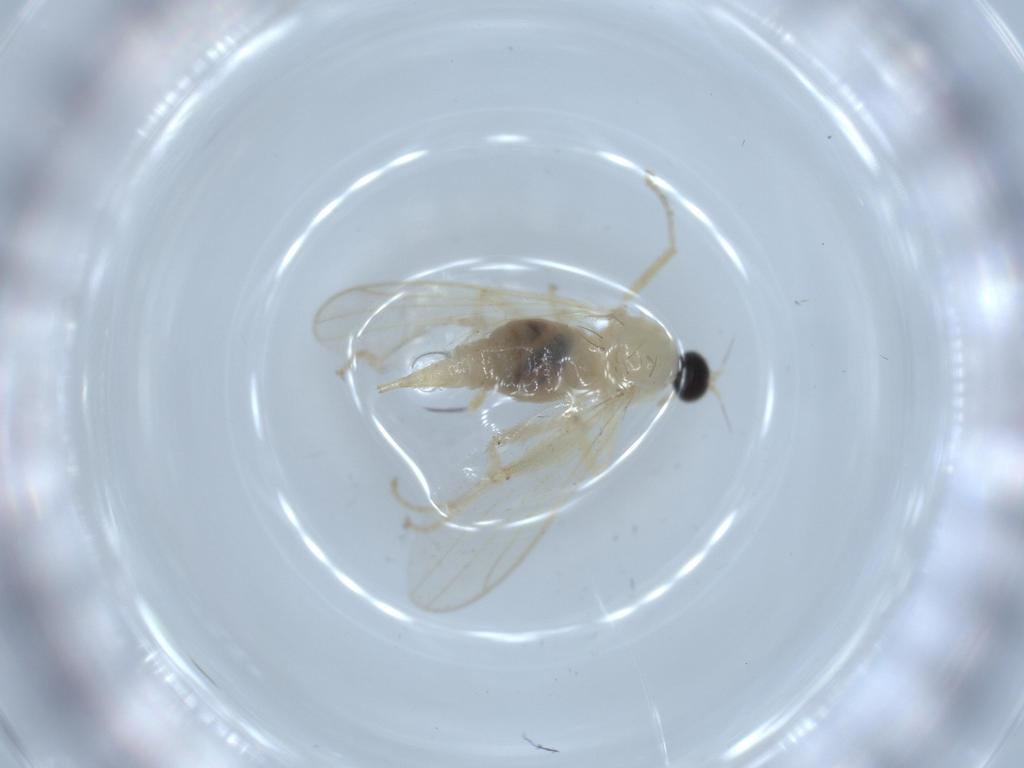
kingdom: Animalia
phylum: Arthropoda
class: Insecta
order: Diptera
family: Hybotidae
